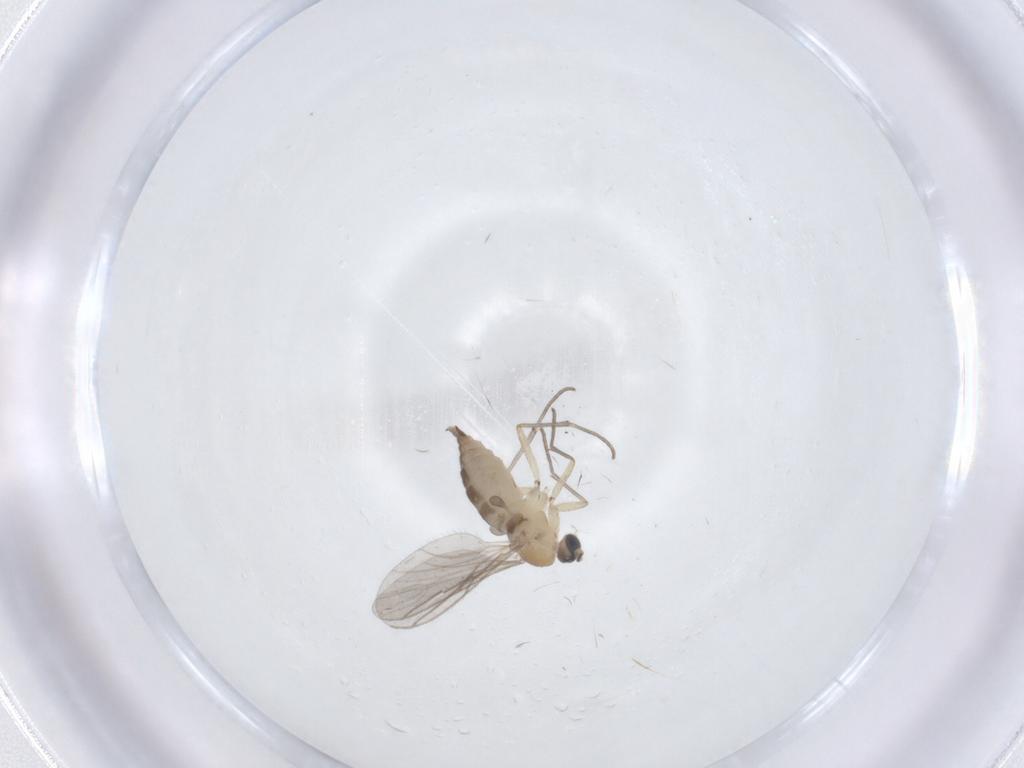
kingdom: Animalia
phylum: Arthropoda
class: Insecta
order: Diptera
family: Sciaridae
